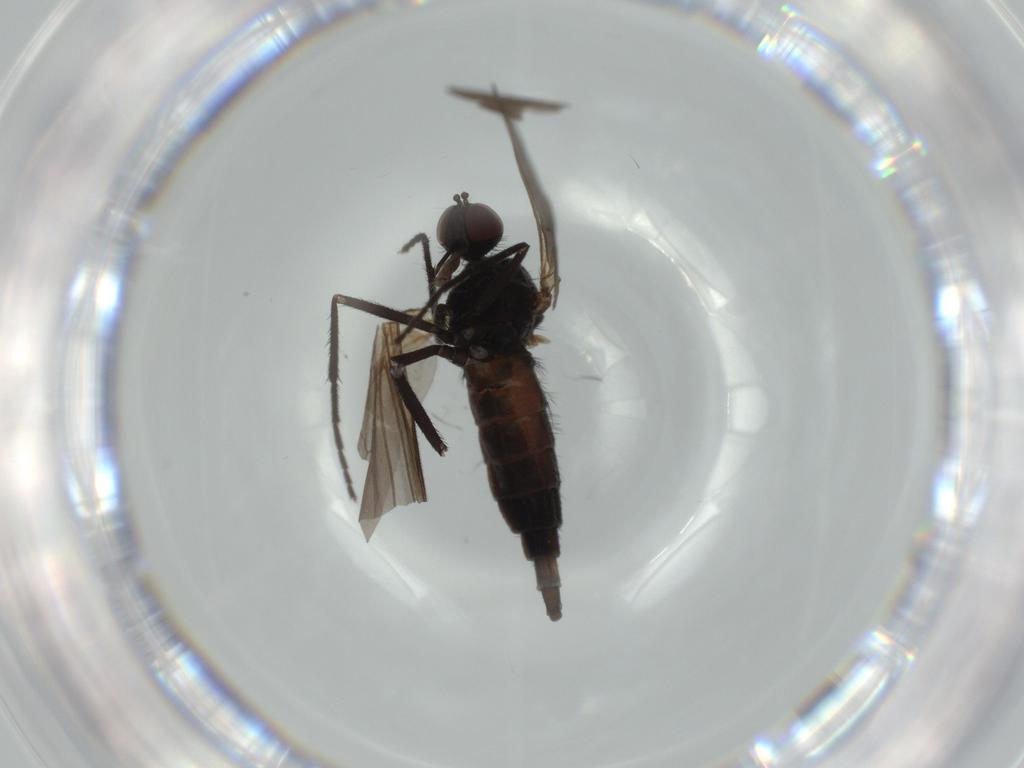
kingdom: Animalia
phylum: Arthropoda
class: Insecta
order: Diptera
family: Empididae
